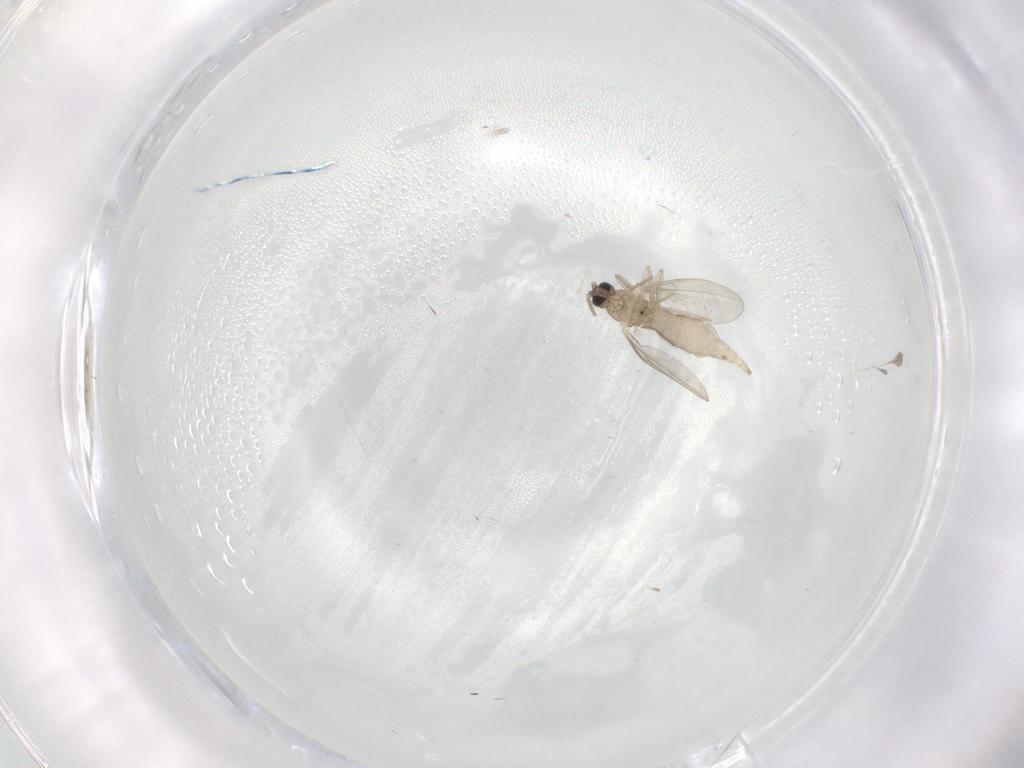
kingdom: Animalia
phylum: Arthropoda
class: Insecta
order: Diptera
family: Cecidomyiidae
